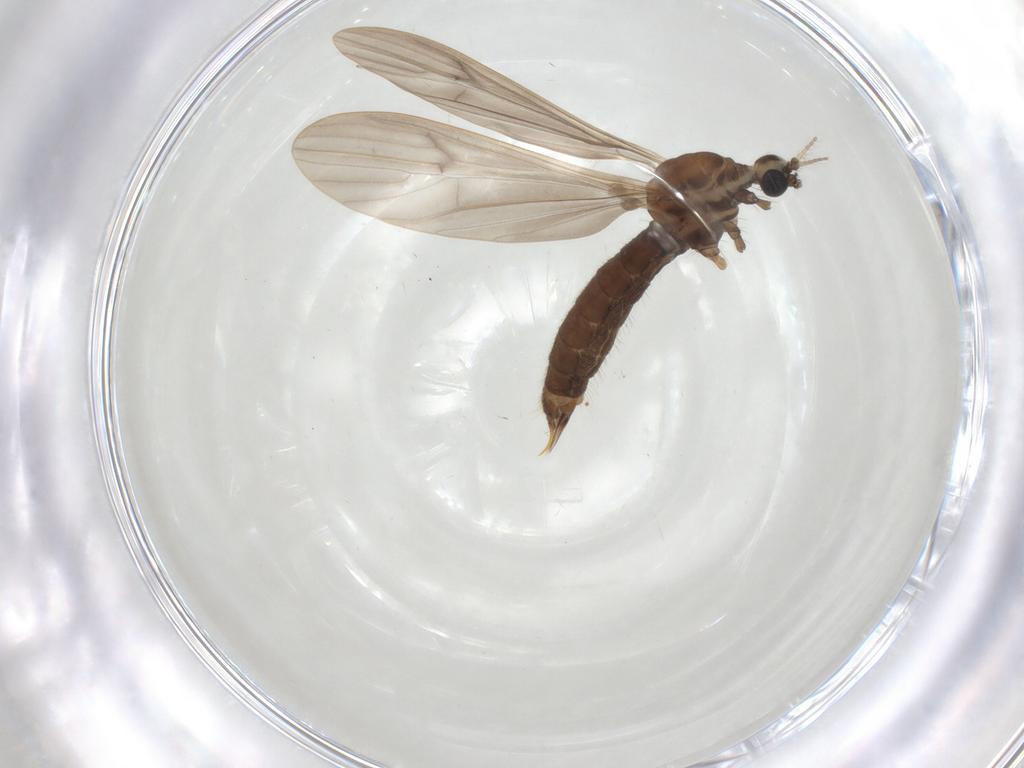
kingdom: Animalia
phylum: Arthropoda
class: Insecta
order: Diptera
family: Limoniidae
